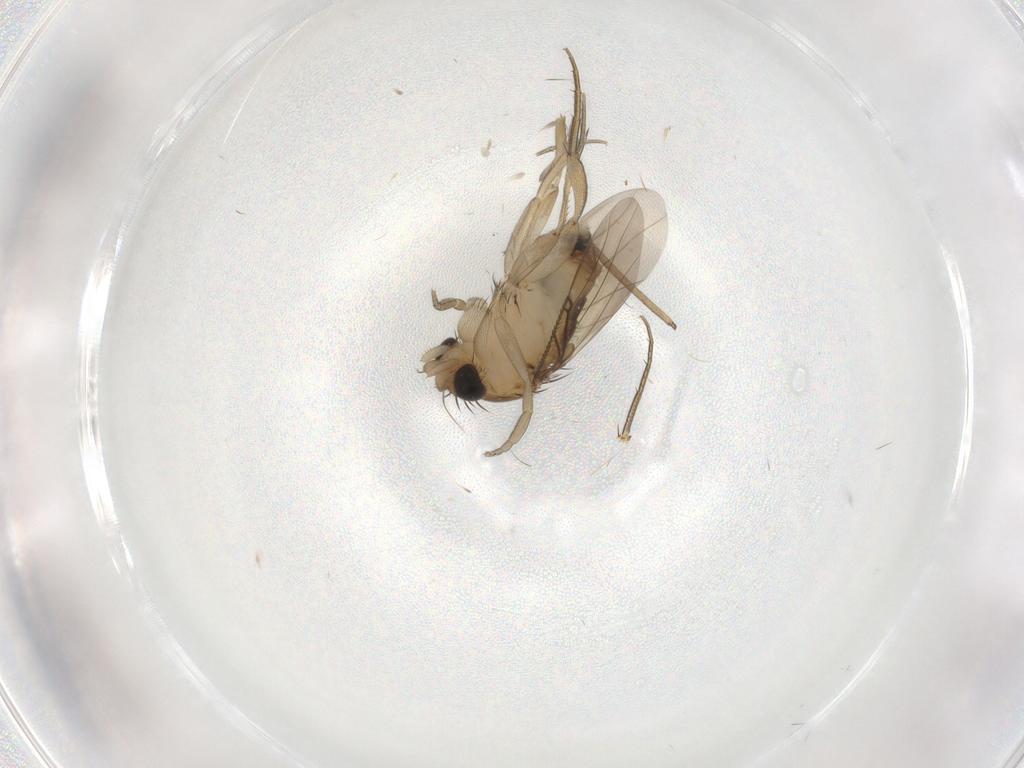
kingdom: Animalia
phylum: Arthropoda
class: Insecta
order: Diptera
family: Phoridae
